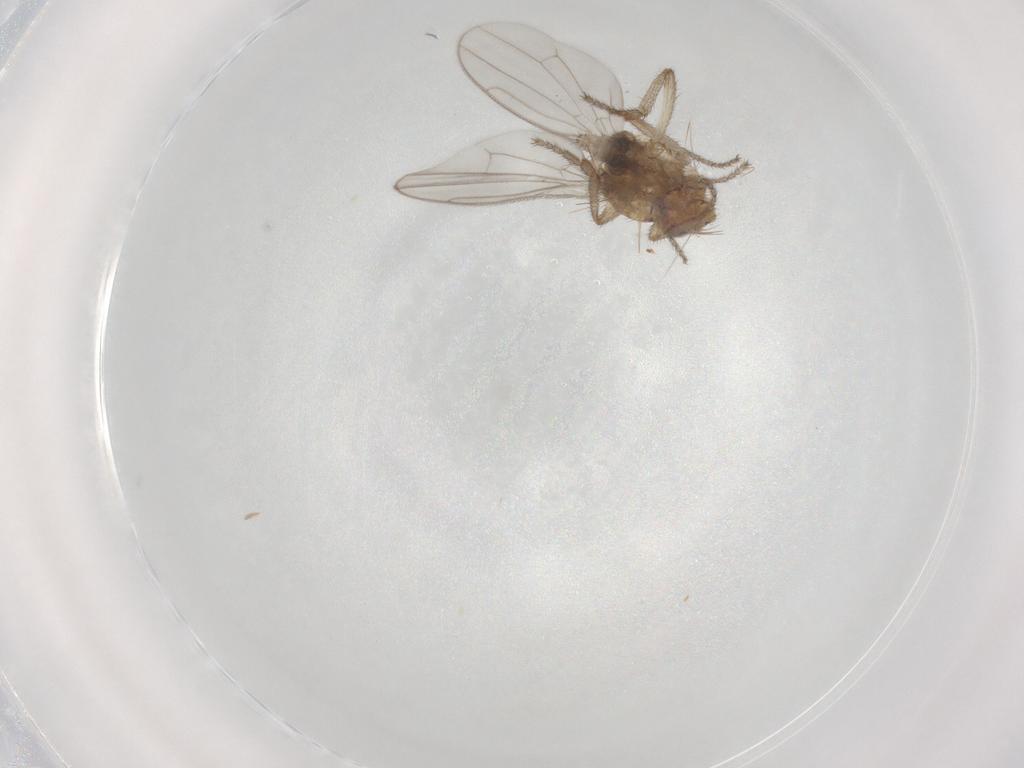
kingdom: Animalia
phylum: Arthropoda
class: Insecta
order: Diptera
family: Sphaeroceridae
